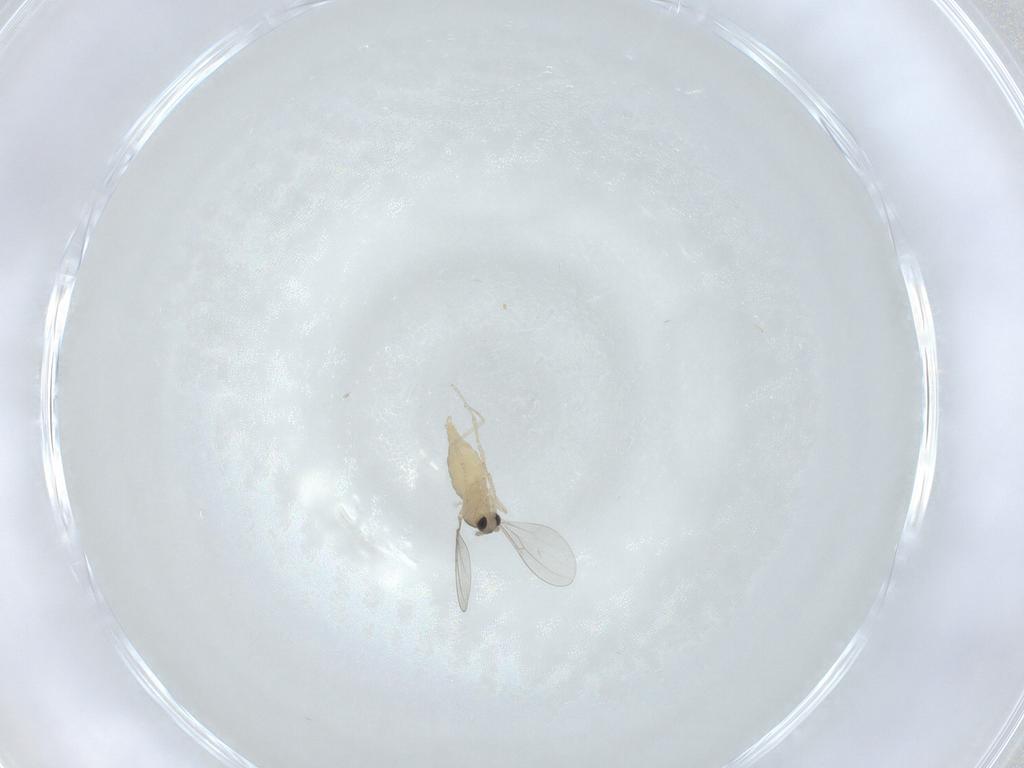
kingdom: Animalia
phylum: Arthropoda
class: Insecta
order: Diptera
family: Cecidomyiidae
